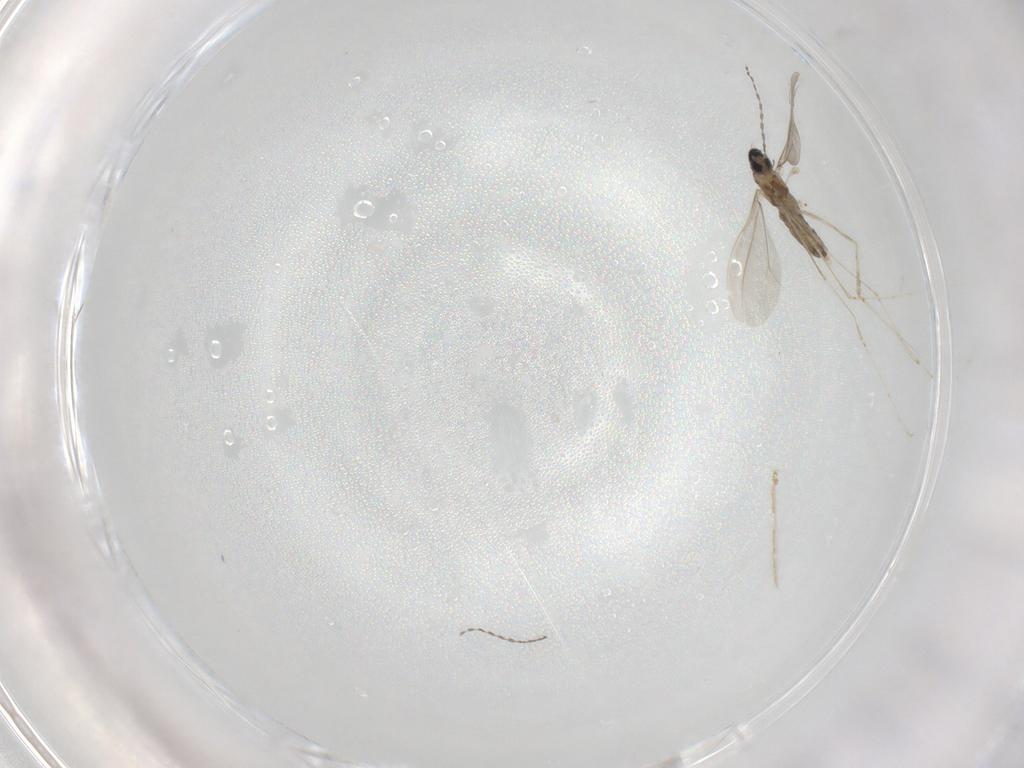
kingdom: Animalia
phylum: Arthropoda
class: Insecta
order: Diptera
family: Cecidomyiidae
